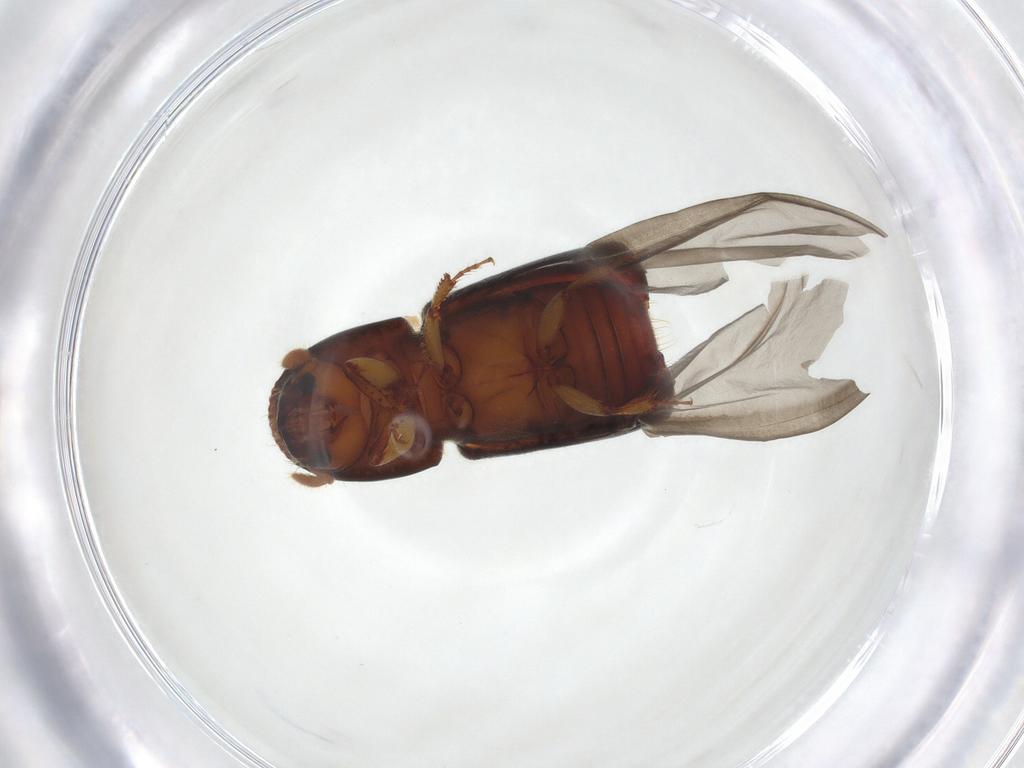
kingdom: Animalia
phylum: Arthropoda
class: Insecta
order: Coleoptera
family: Curculionidae
